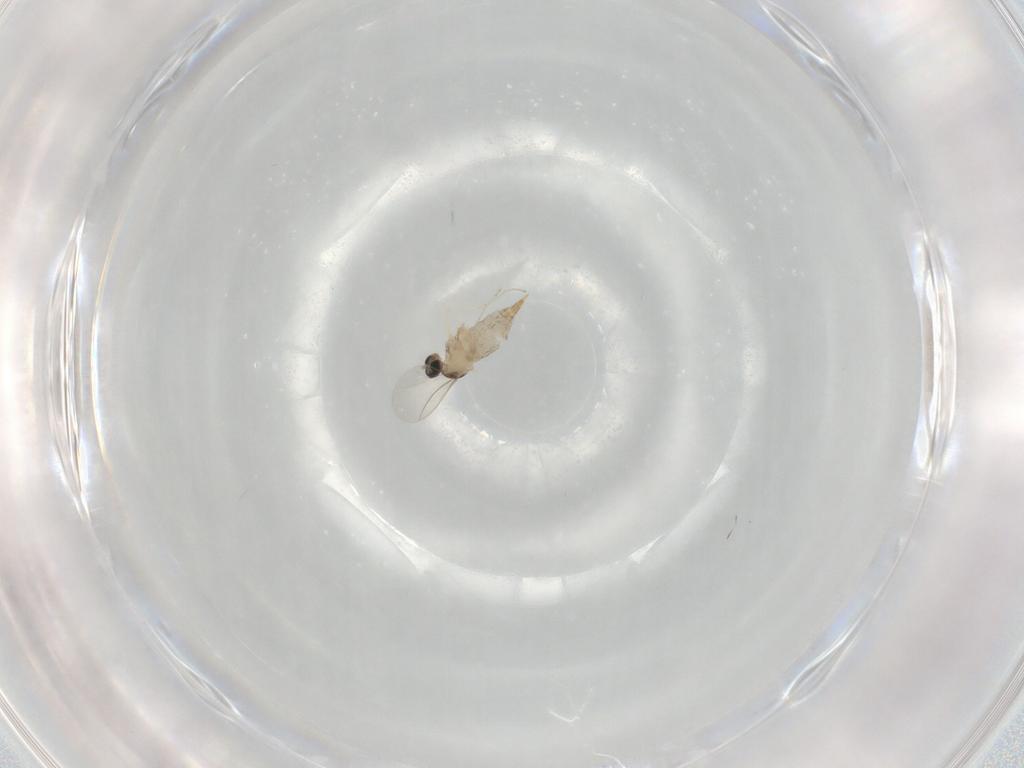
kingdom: Animalia
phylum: Arthropoda
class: Insecta
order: Diptera
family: Cecidomyiidae
